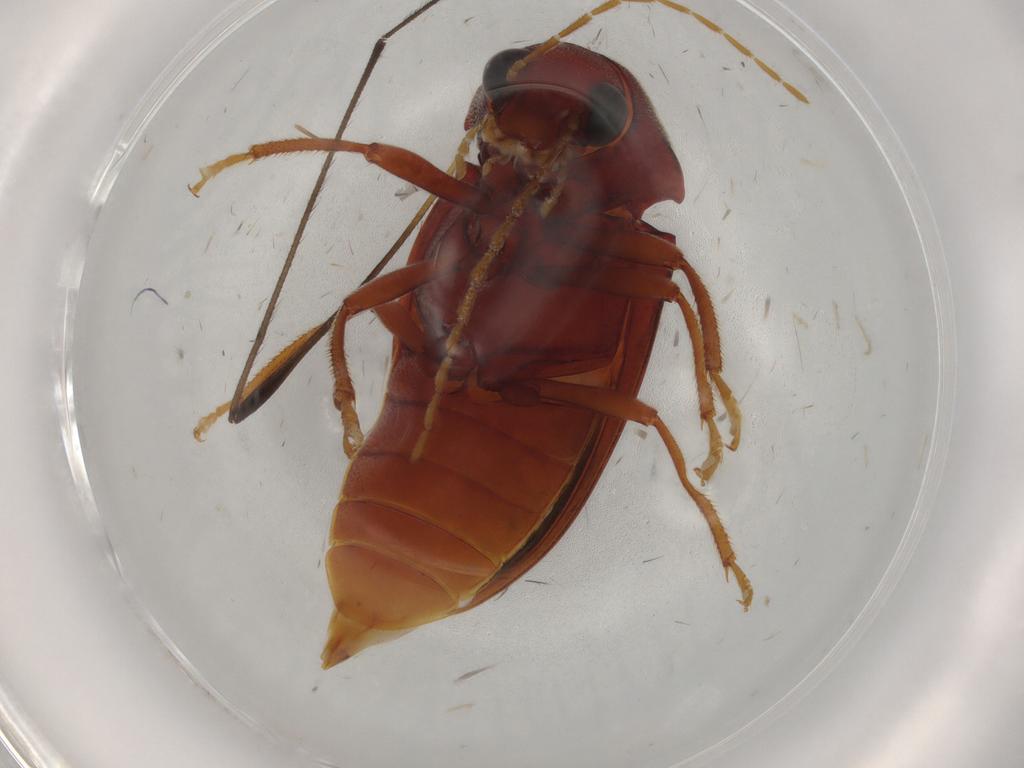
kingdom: Animalia
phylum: Arthropoda
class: Insecta
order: Coleoptera
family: Ptilodactylidae
